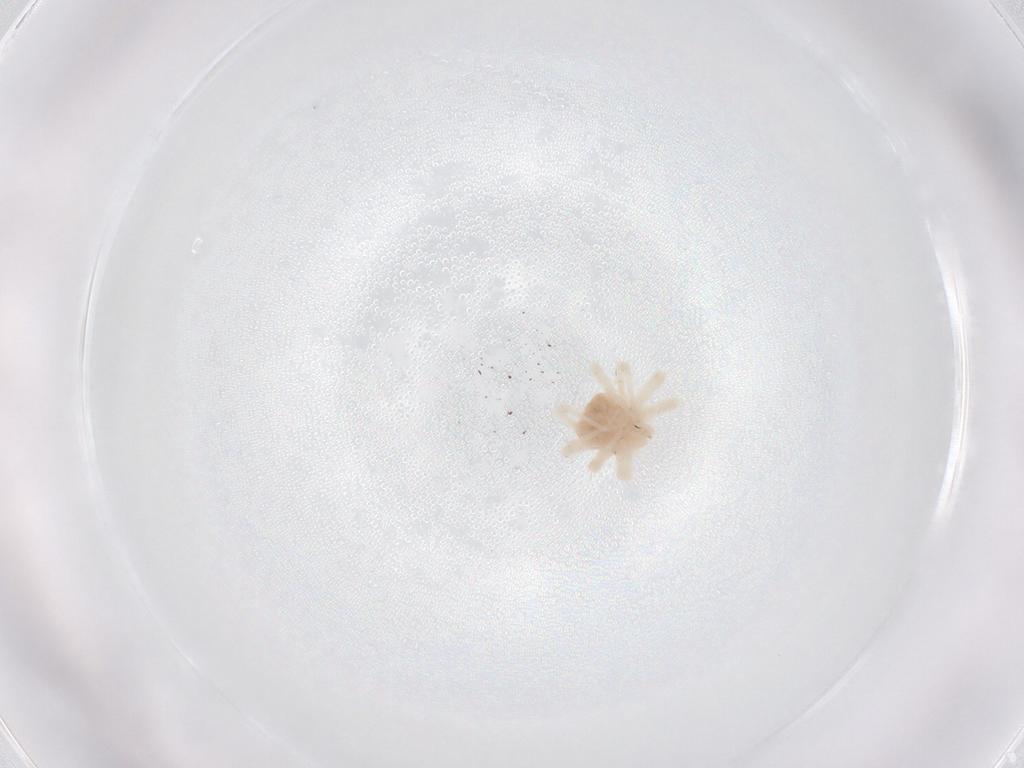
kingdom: Animalia
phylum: Arthropoda
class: Arachnida
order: Trombidiformes
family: Anystidae
